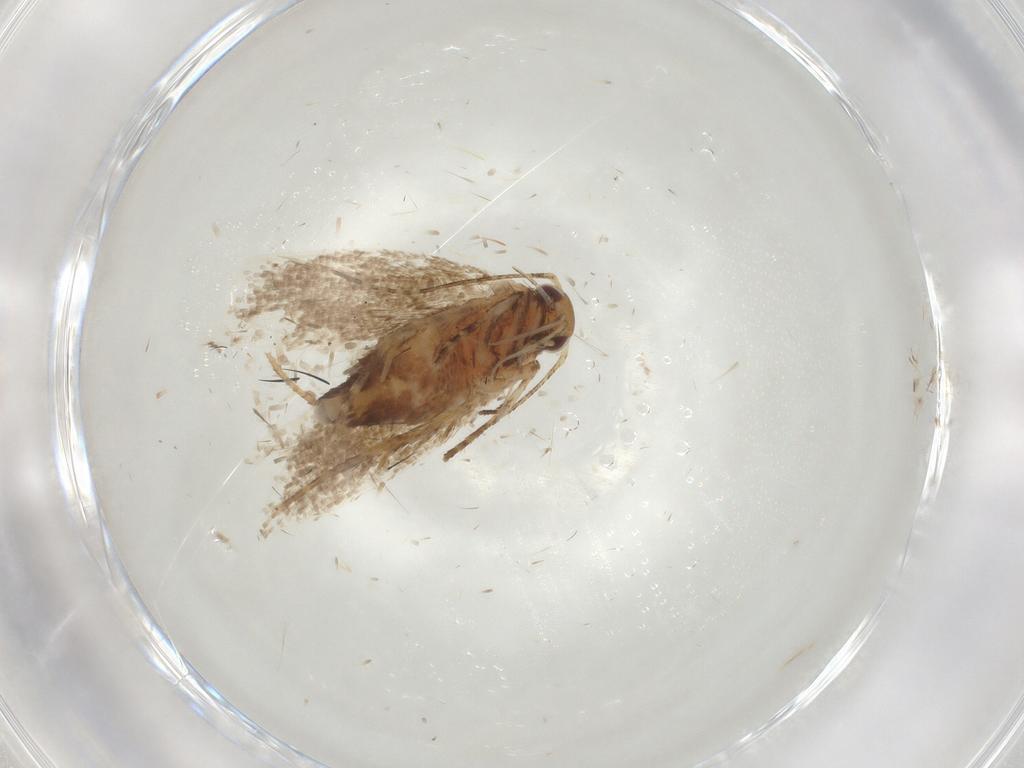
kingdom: Animalia
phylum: Arthropoda
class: Insecta
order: Lepidoptera
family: Oecophoridae
